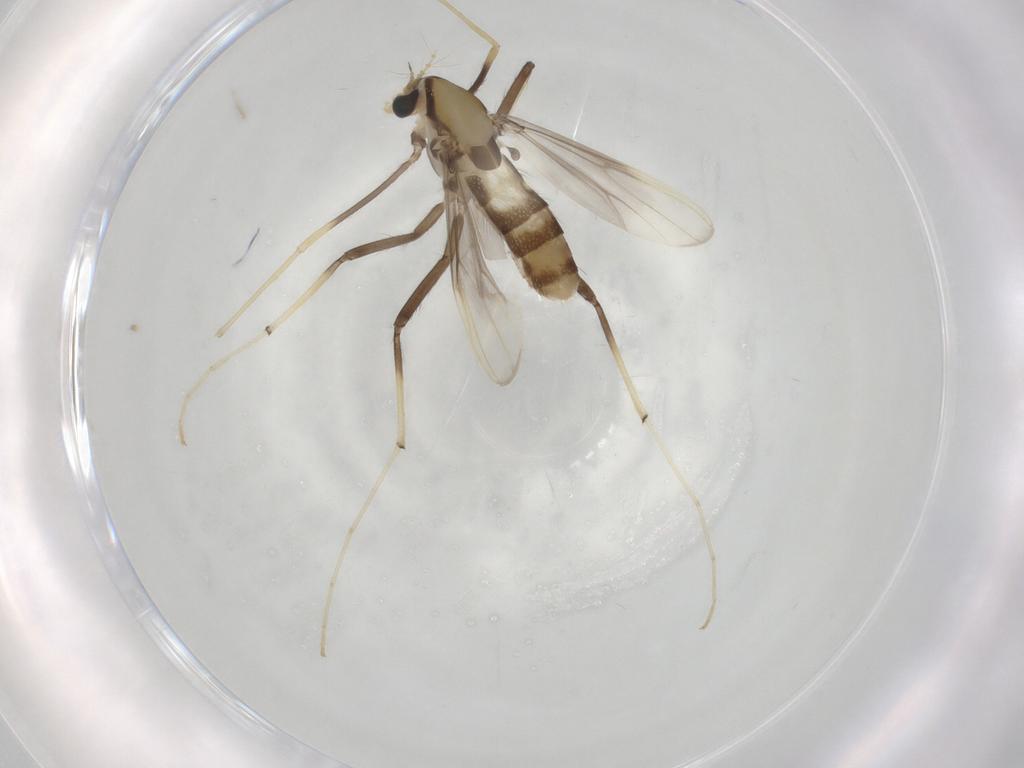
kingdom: Animalia
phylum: Arthropoda
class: Insecta
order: Diptera
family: Chironomidae
